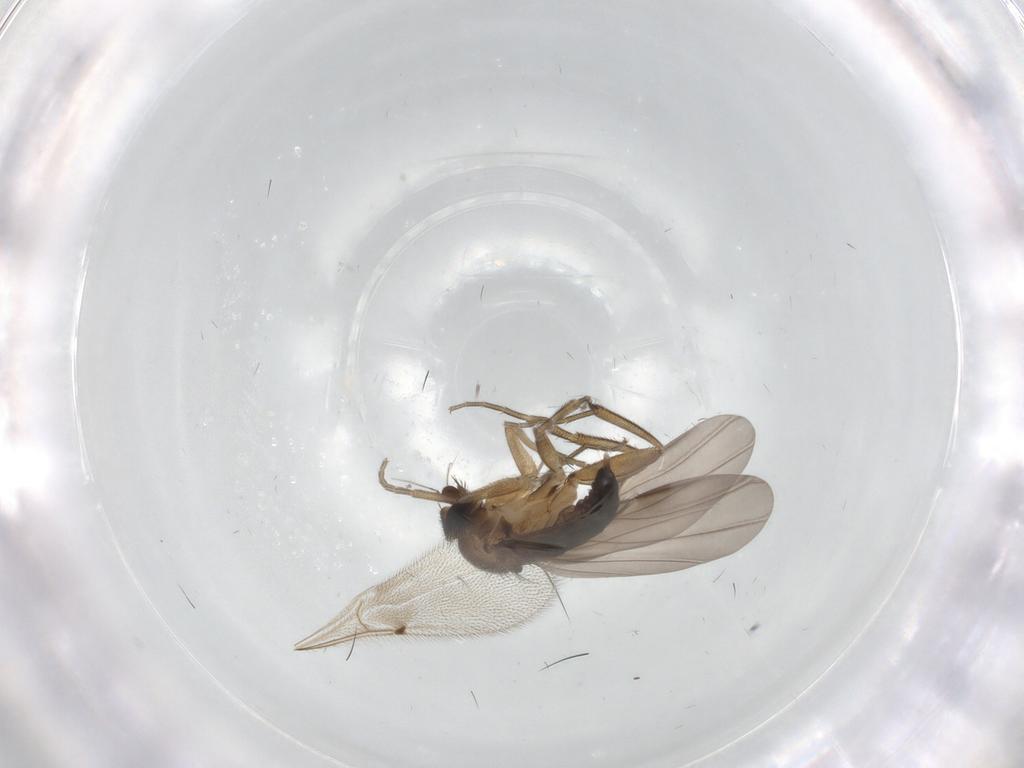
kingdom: Animalia
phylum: Arthropoda
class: Insecta
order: Diptera
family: Phoridae
